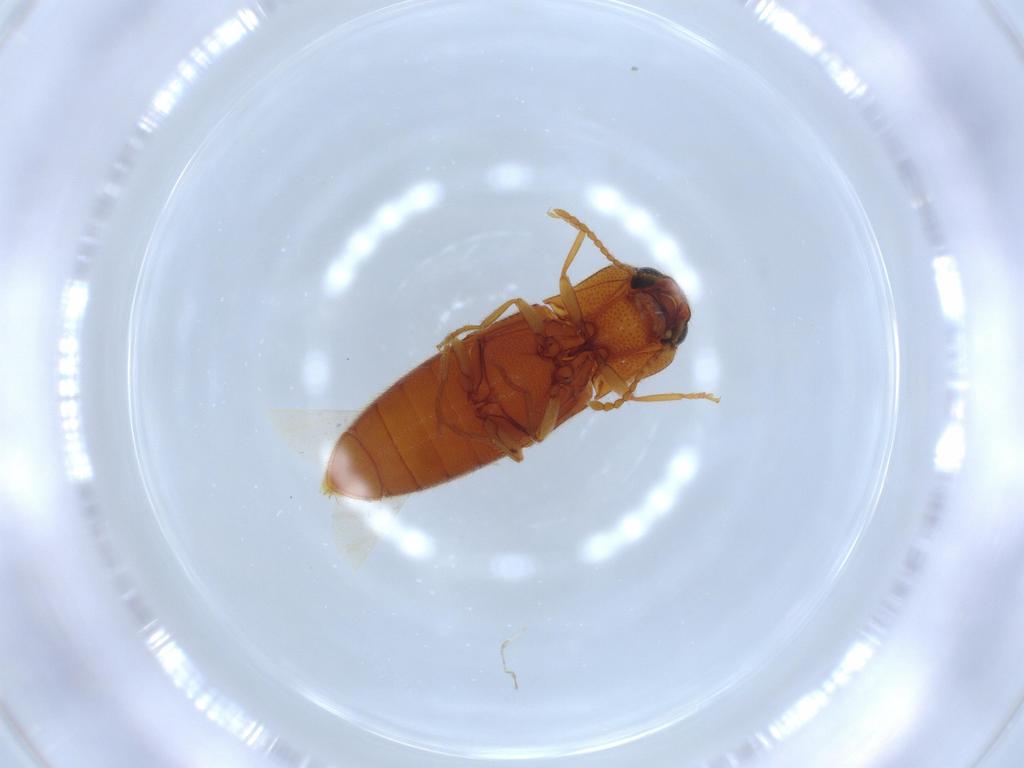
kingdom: Animalia
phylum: Arthropoda
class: Insecta
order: Coleoptera
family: Elateridae
